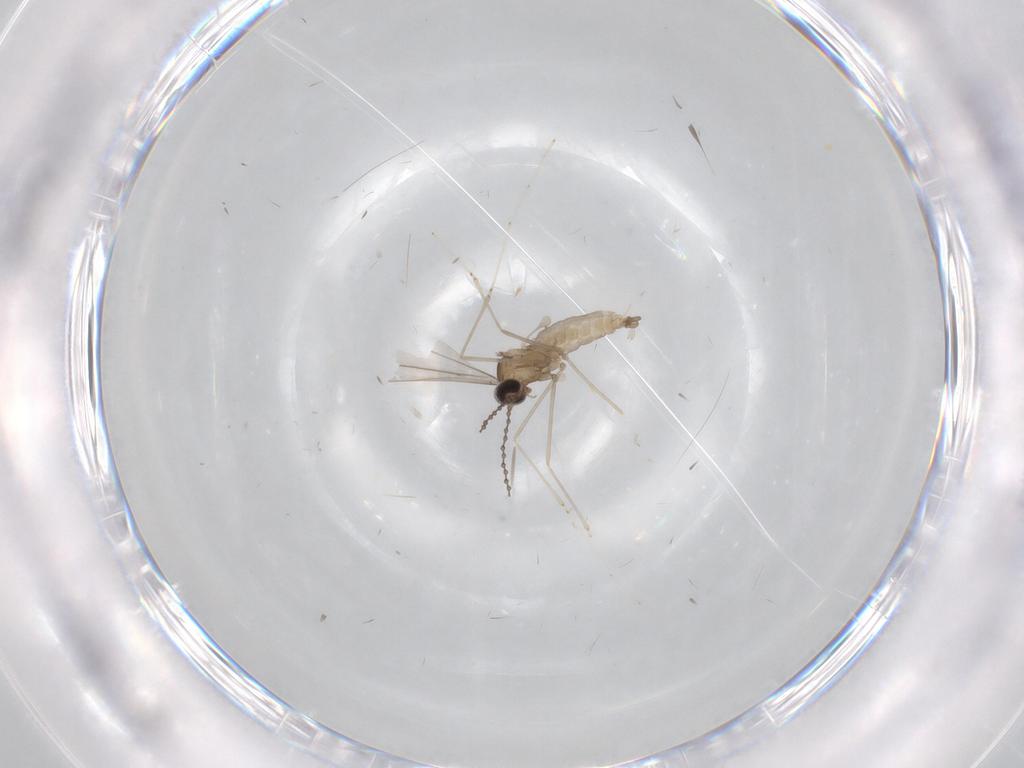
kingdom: Animalia
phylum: Arthropoda
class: Insecta
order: Diptera
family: Cecidomyiidae
